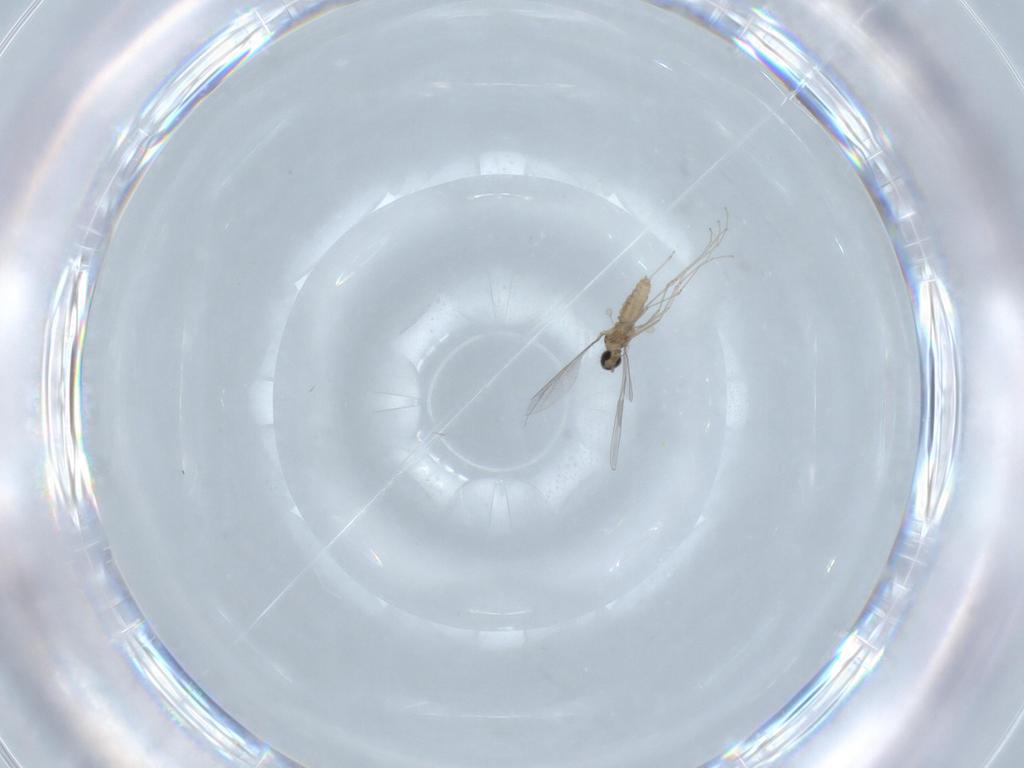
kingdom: Animalia
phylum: Arthropoda
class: Insecta
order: Diptera
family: Cecidomyiidae
